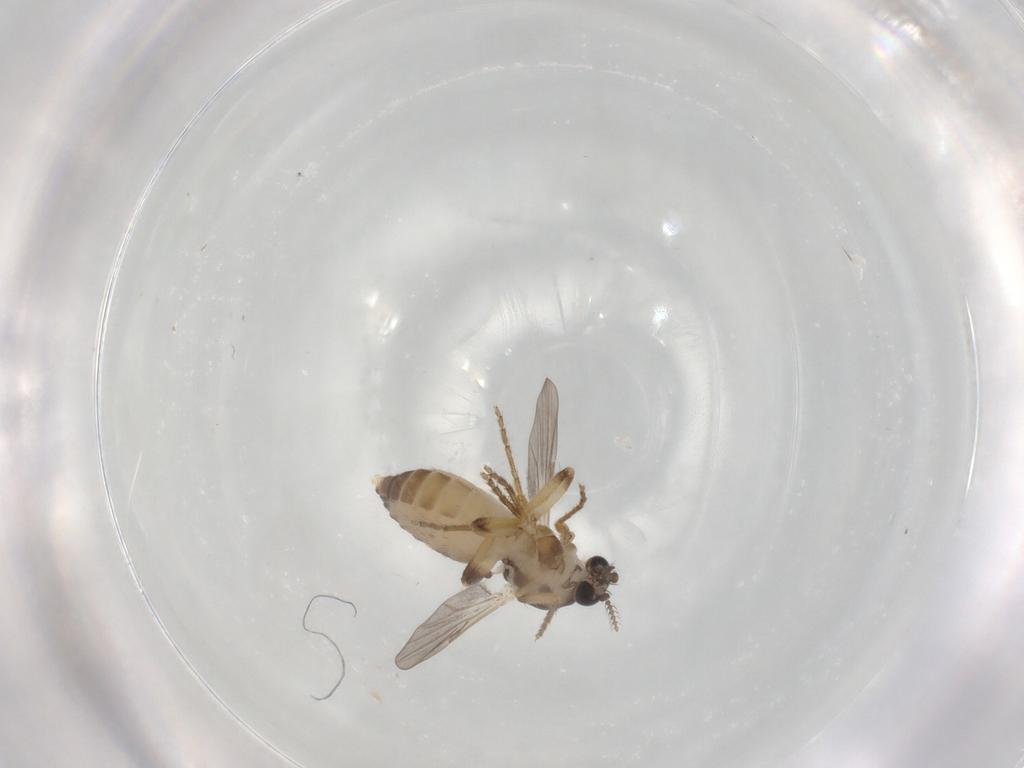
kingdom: Animalia
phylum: Arthropoda
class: Insecta
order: Diptera
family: Ceratopogonidae
